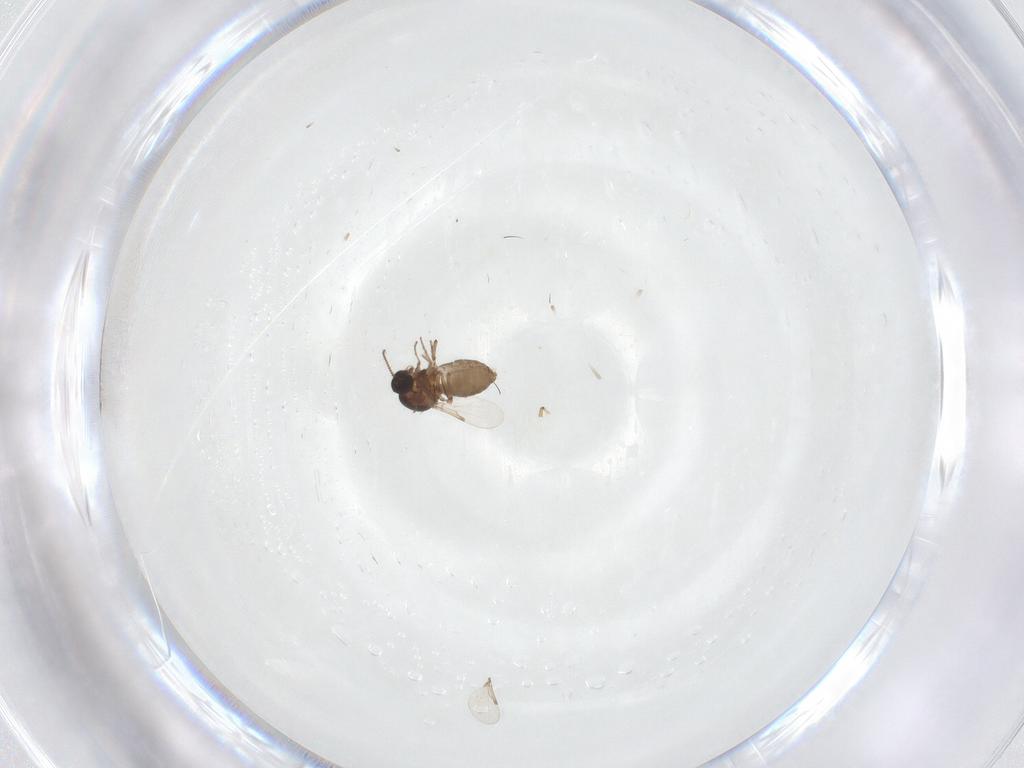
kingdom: Animalia
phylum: Arthropoda
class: Insecta
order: Diptera
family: Ceratopogonidae
